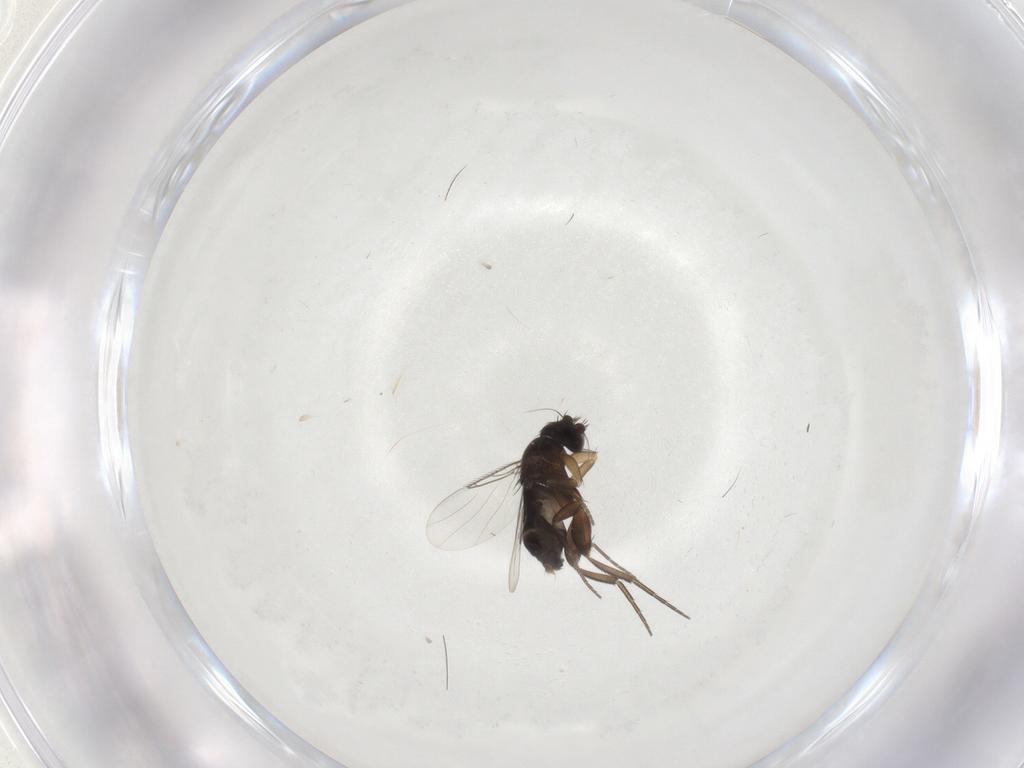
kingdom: Animalia
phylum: Arthropoda
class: Insecta
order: Diptera
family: Phoridae
